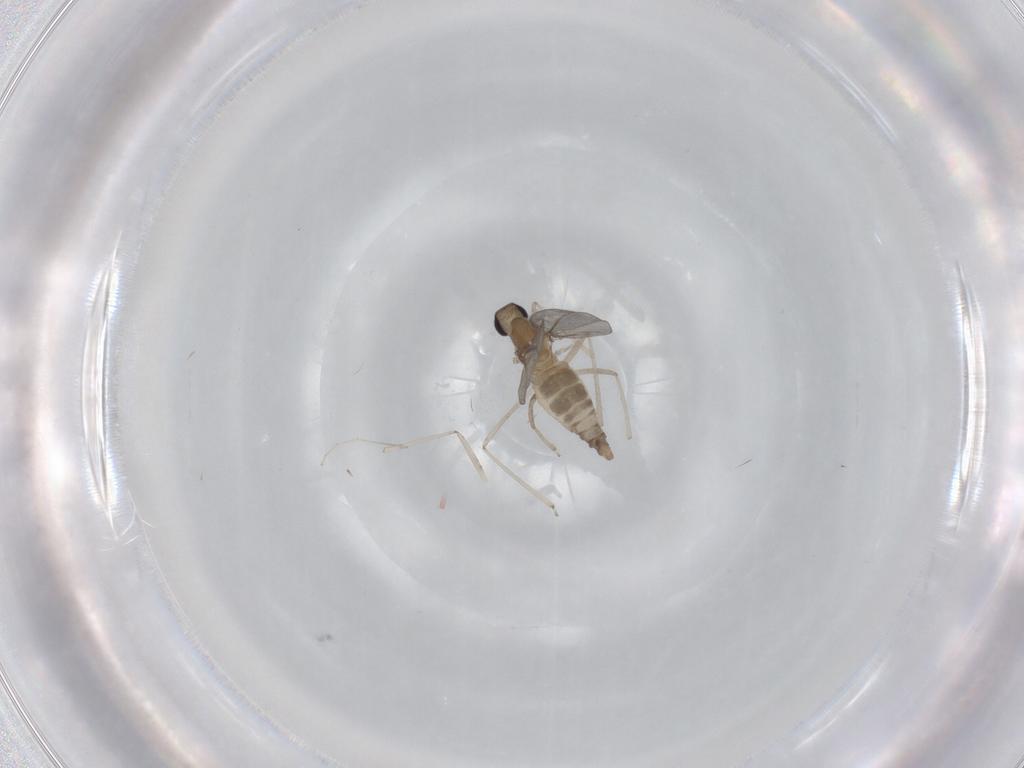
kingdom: Animalia
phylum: Arthropoda
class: Insecta
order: Diptera
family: Cecidomyiidae
